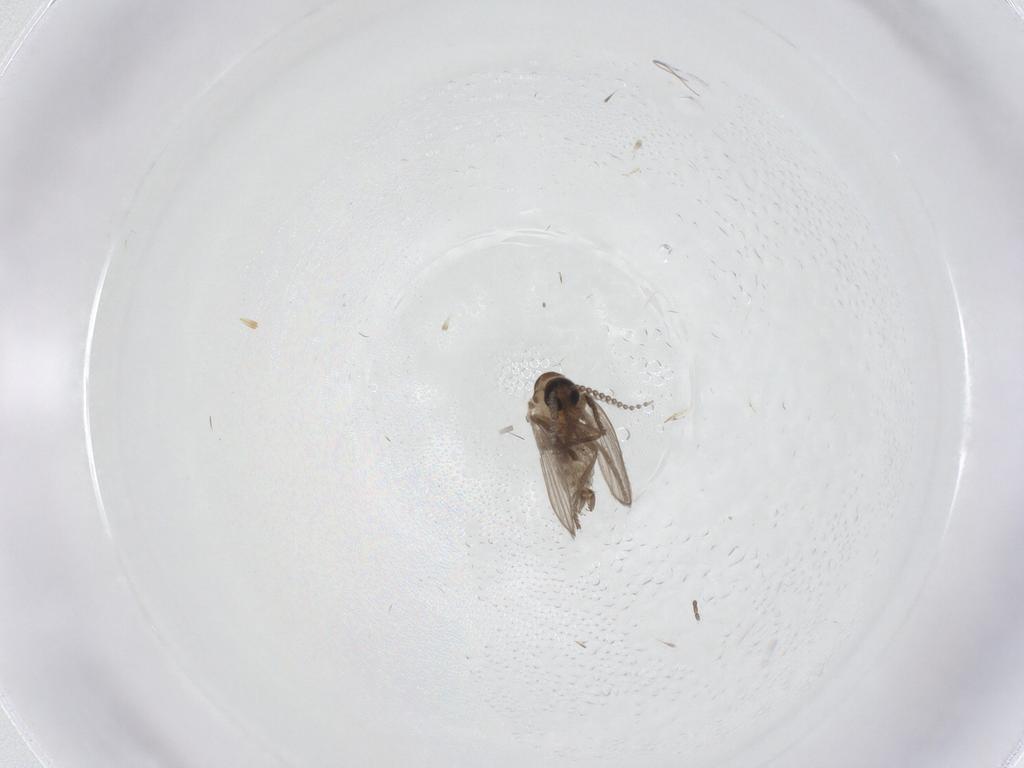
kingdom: Animalia
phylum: Arthropoda
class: Insecta
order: Diptera
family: Cecidomyiidae
